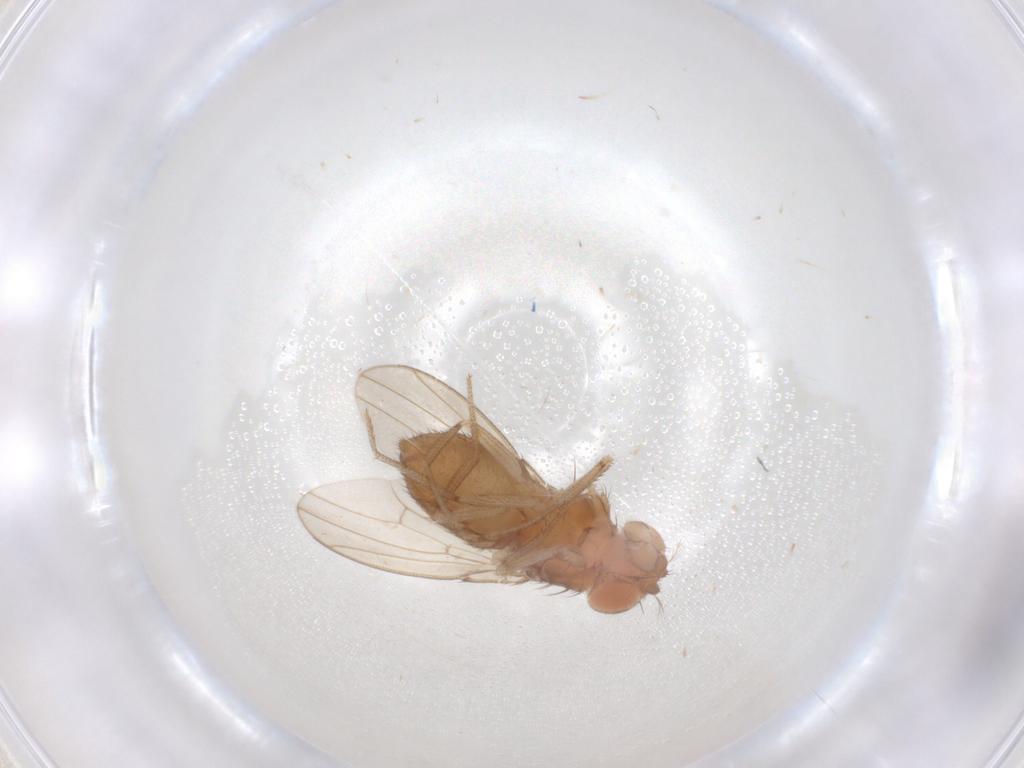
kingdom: Animalia
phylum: Arthropoda
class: Insecta
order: Diptera
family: Cecidomyiidae
